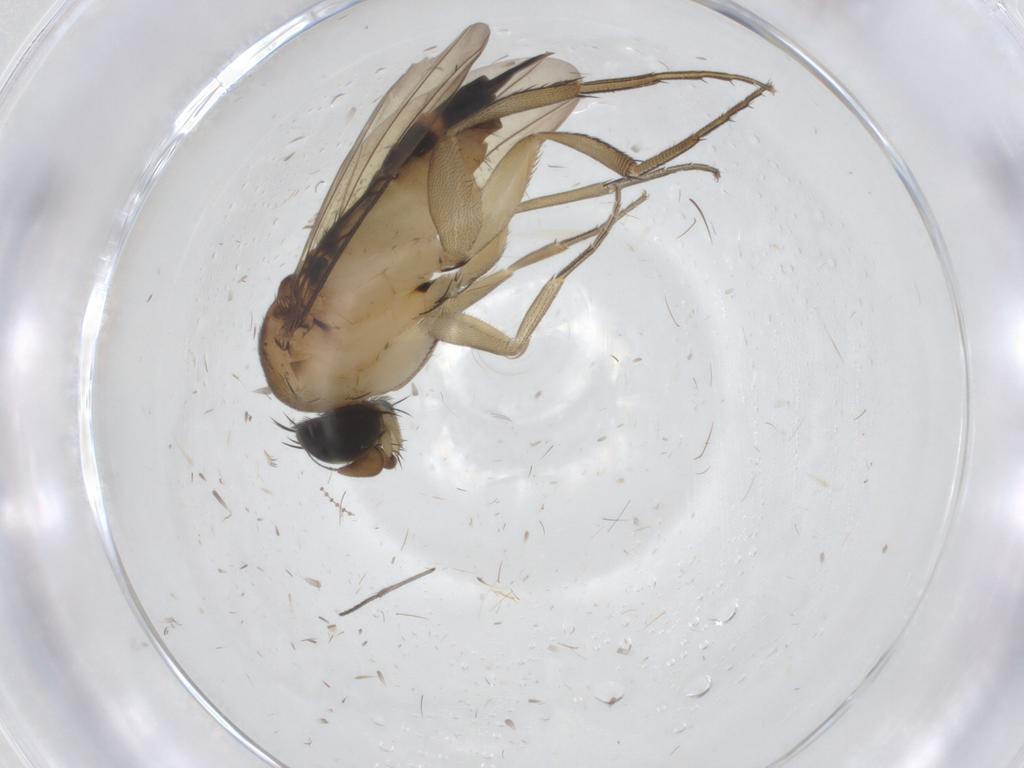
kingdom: Animalia
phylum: Arthropoda
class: Insecta
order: Diptera
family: Phoridae
